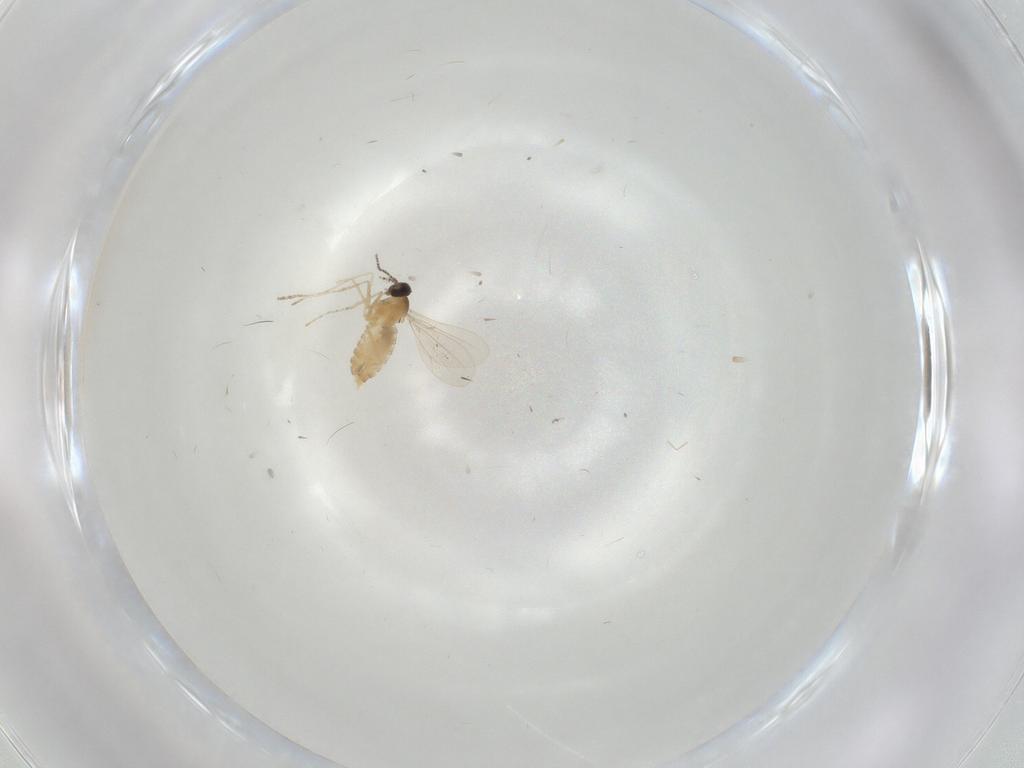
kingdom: Animalia
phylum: Arthropoda
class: Insecta
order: Diptera
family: Cecidomyiidae
